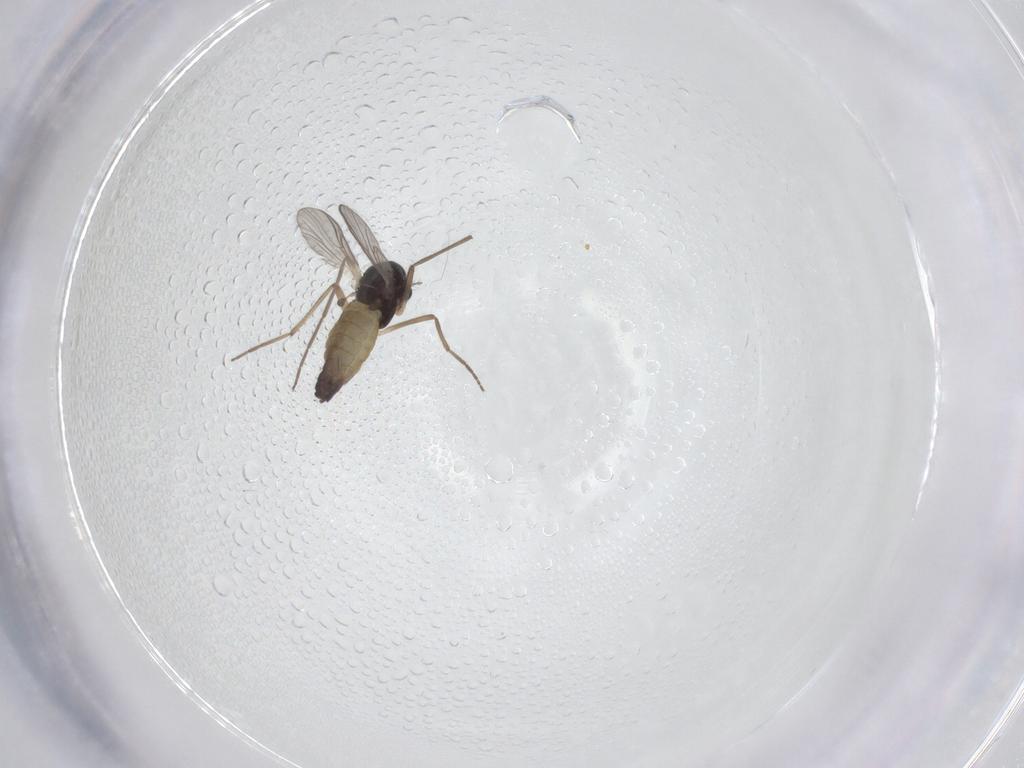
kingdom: Animalia
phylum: Arthropoda
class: Insecta
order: Diptera
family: Chironomidae
